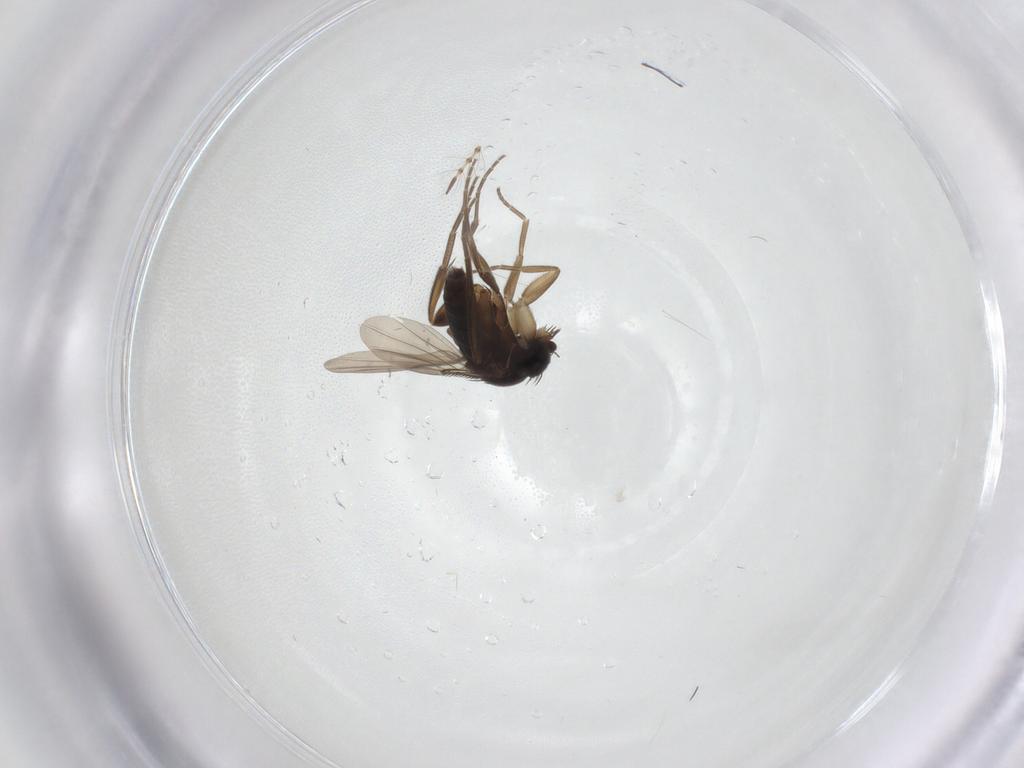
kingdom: Animalia
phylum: Arthropoda
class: Insecta
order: Diptera
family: Phoridae
